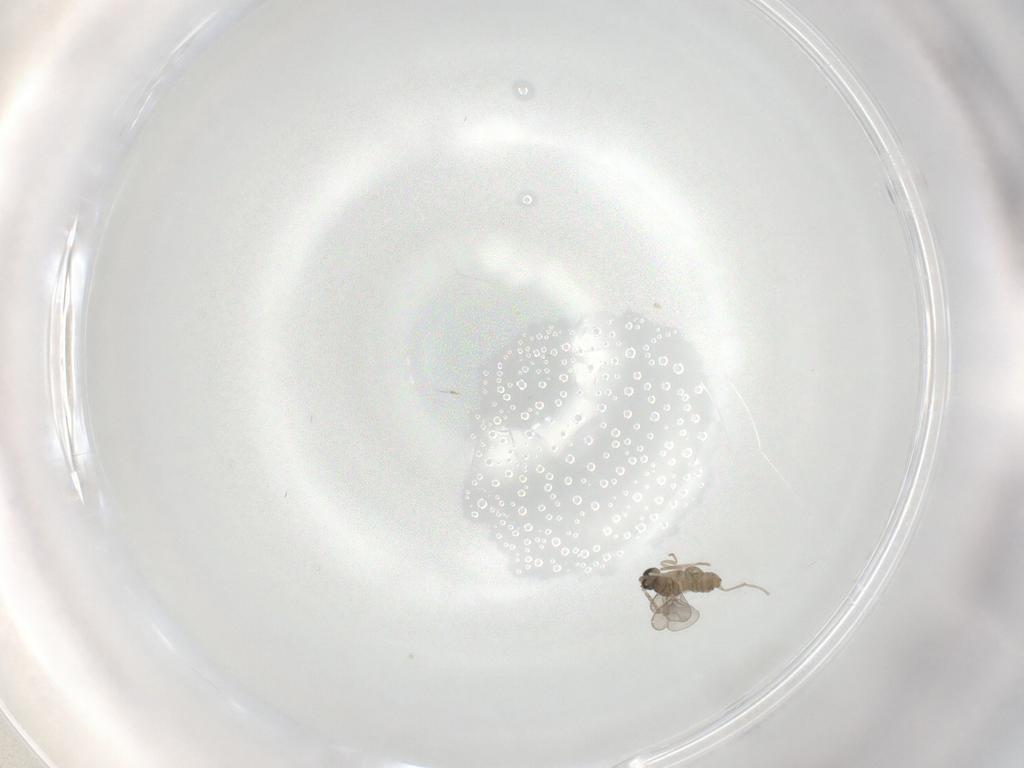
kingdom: Animalia
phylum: Arthropoda
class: Insecta
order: Diptera
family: Cecidomyiidae
